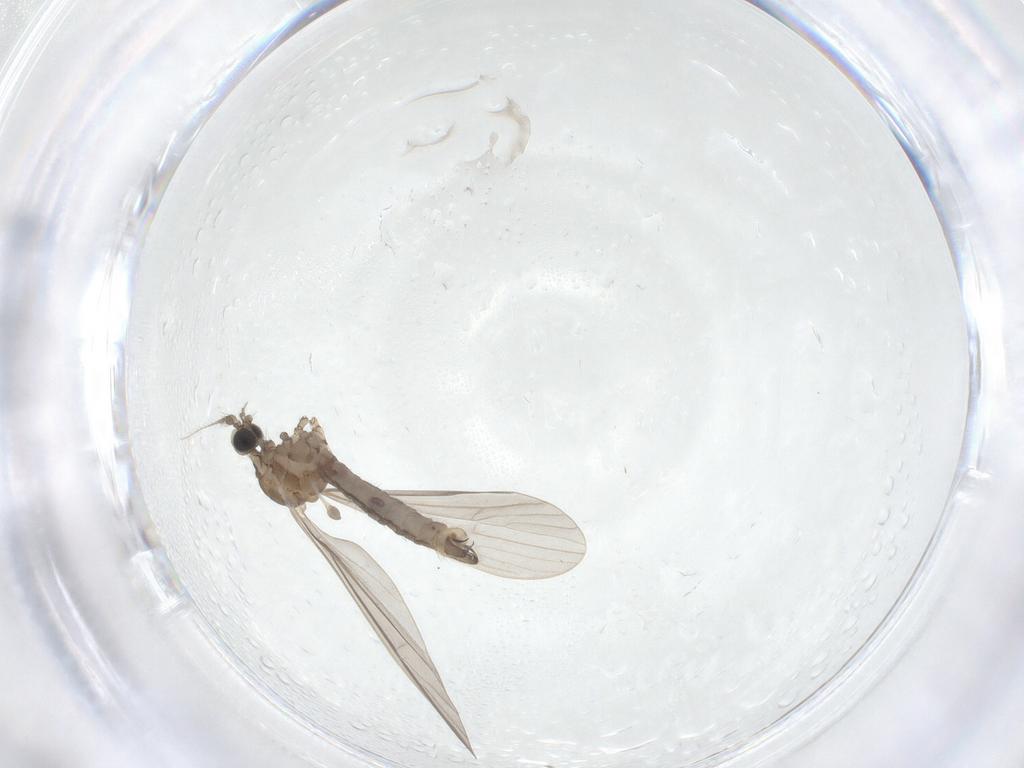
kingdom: Animalia
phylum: Arthropoda
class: Insecta
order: Diptera
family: Limoniidae
